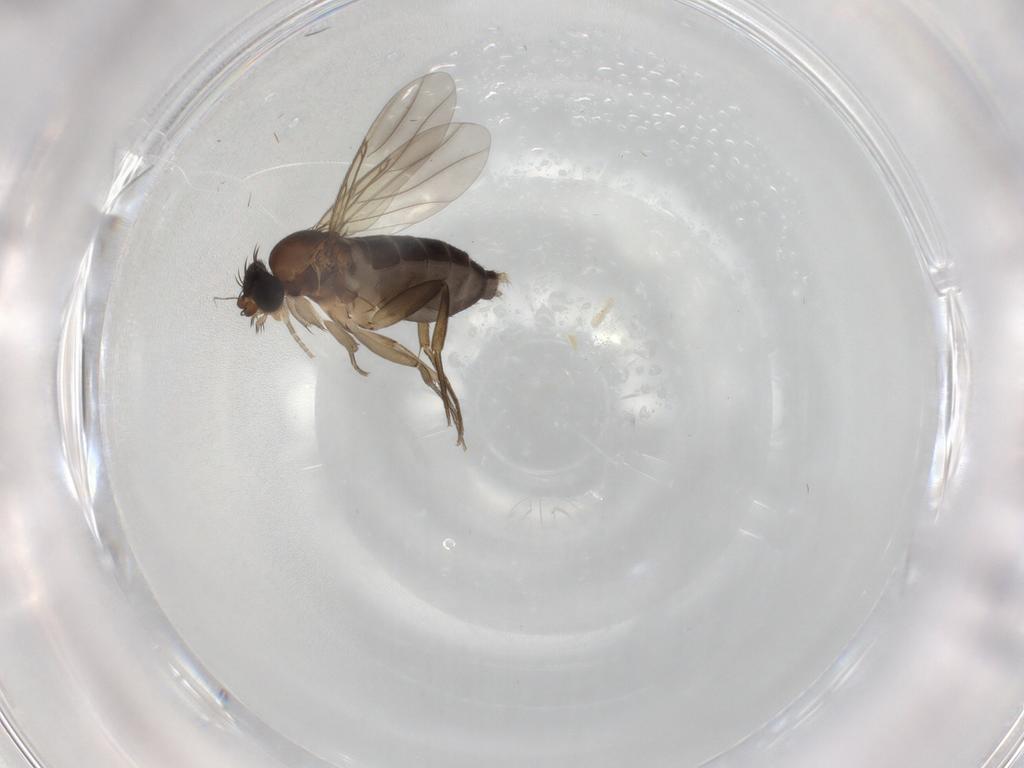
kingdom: Animalia
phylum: Arthropoda
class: Insecta
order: Diptera
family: Phoridae
